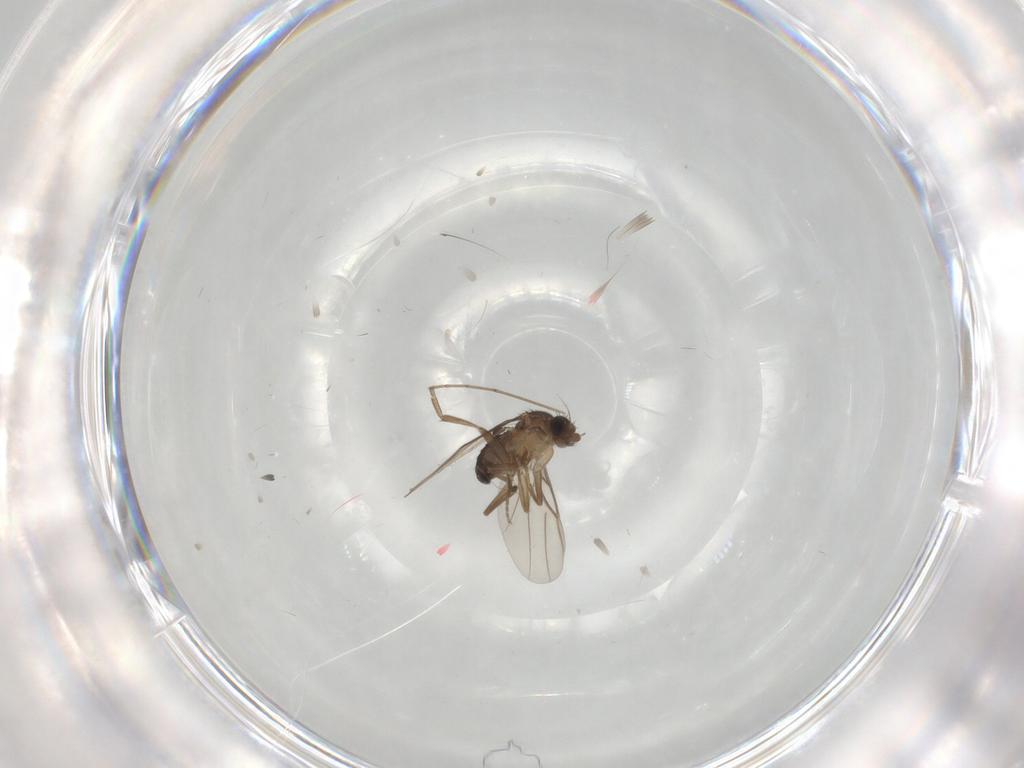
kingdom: Animalia
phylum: Arthropoda
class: Insecta
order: Diptera
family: Phoridae
